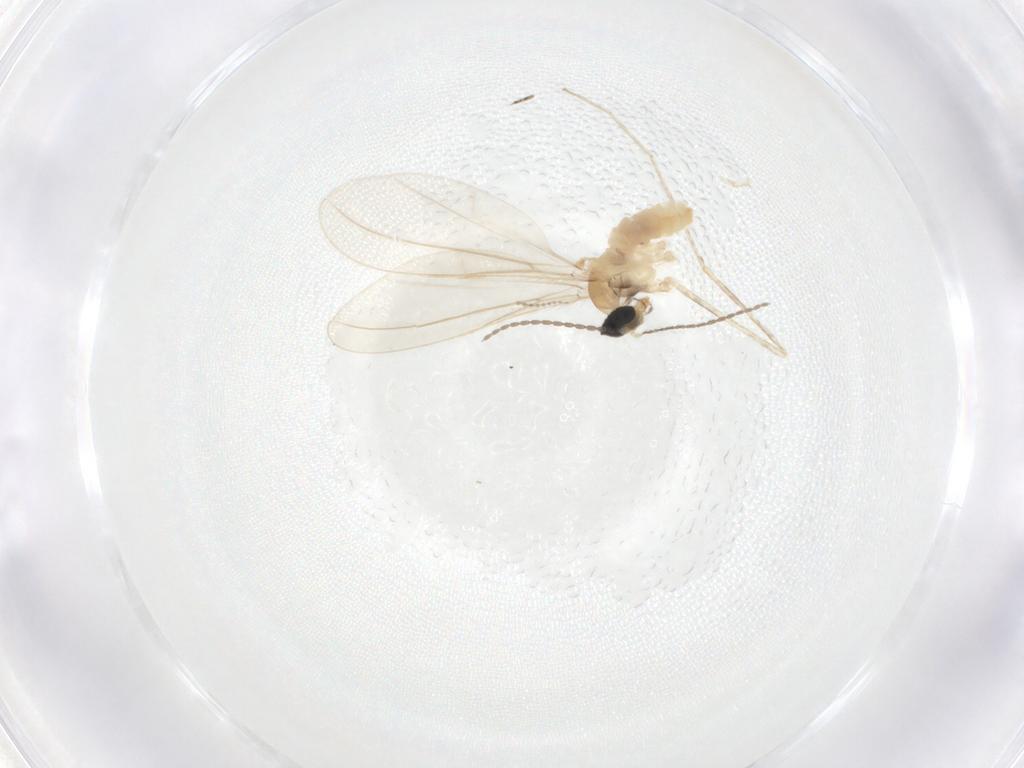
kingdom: Animalia
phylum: Arthropoda
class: Insecta
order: Diptera
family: Cecidomyiidae
